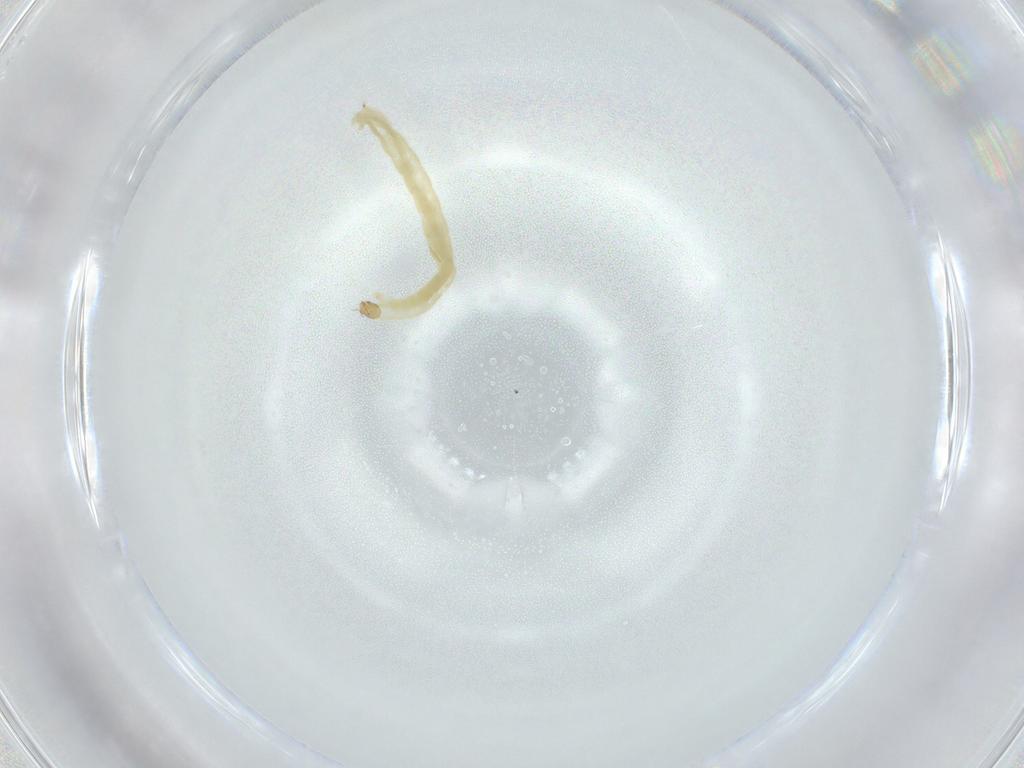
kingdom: Animalia
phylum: Arthropoda
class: Insecta
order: Diptera
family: Chironomidae
